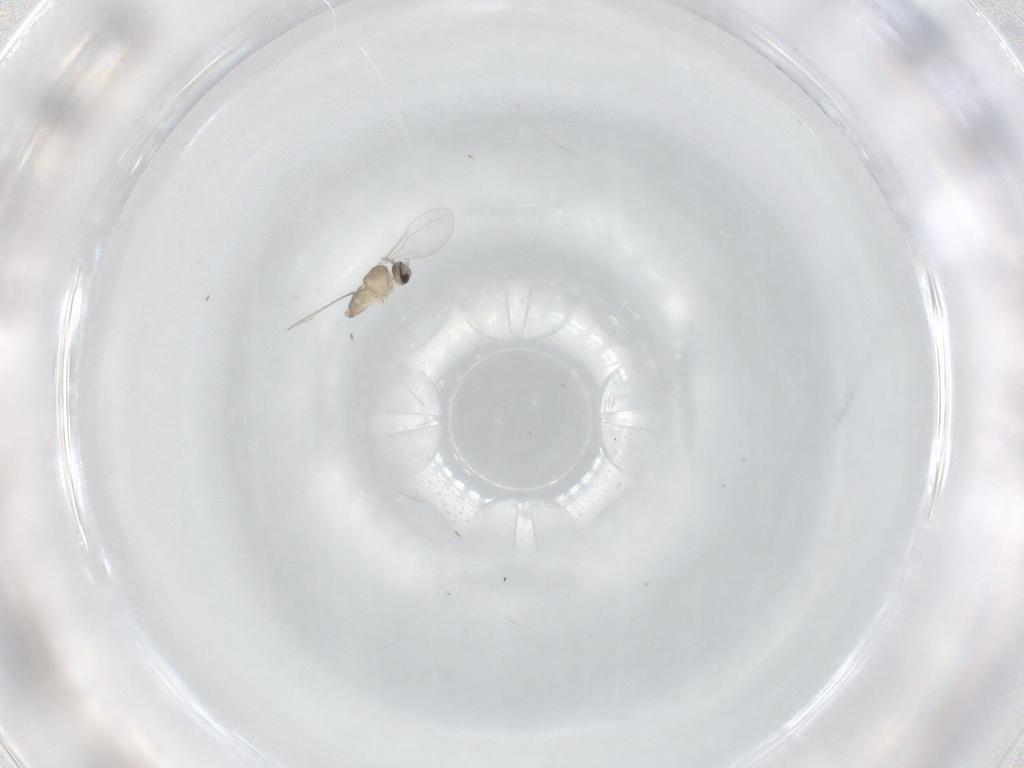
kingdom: Animalia
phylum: Arthropoda
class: Insecta
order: Diptera
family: Cecidomyiidae
